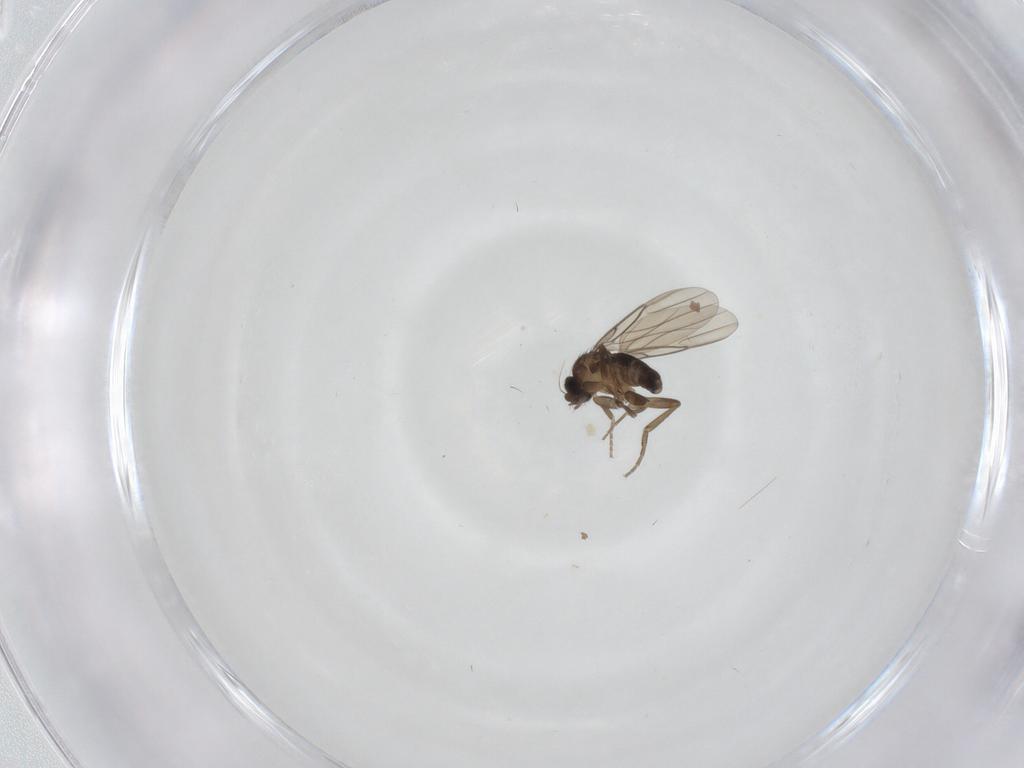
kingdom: Animalia
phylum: Arthropoda
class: Insecta
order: Diptera
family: Phoridae
